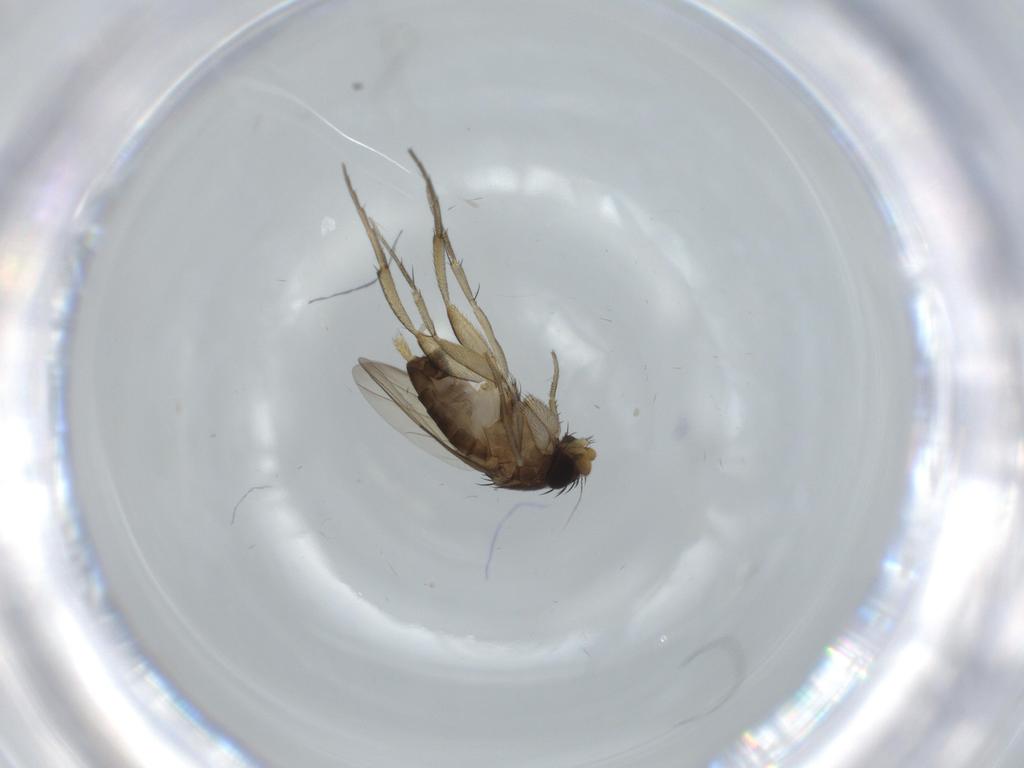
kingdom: Animalia
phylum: Arthropoda
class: Insecta
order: Diptera
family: Phoridae
